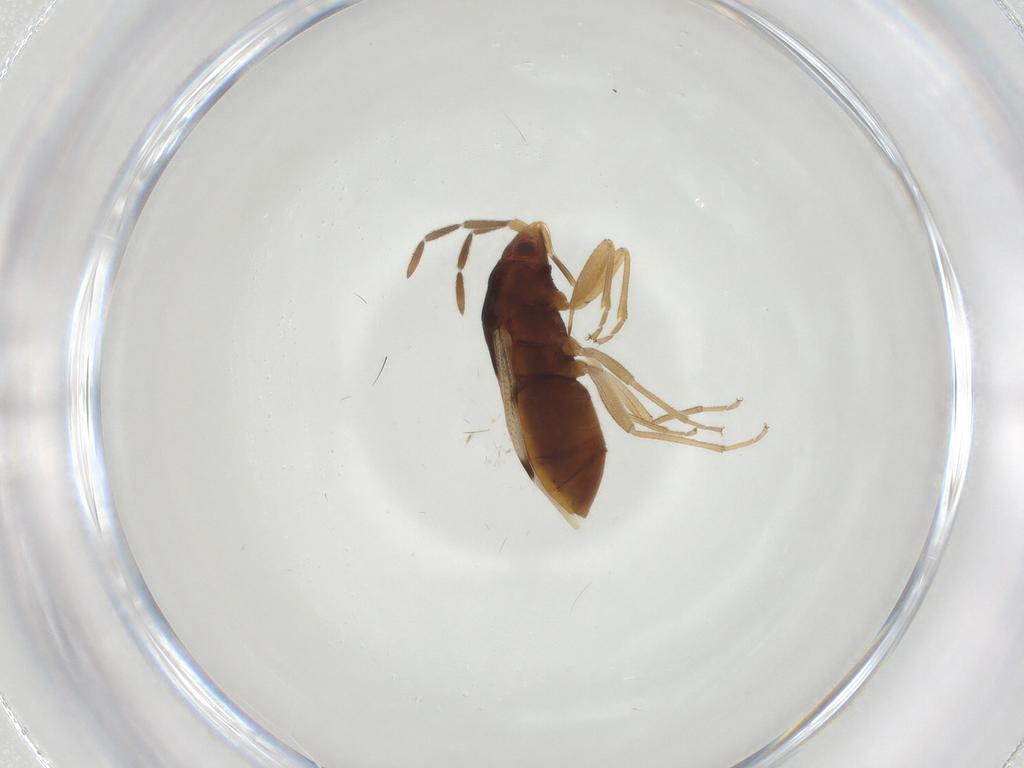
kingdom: Animalia
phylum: Arthropoda
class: Insecta
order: Hemiptera
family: Rhyparochromidae
